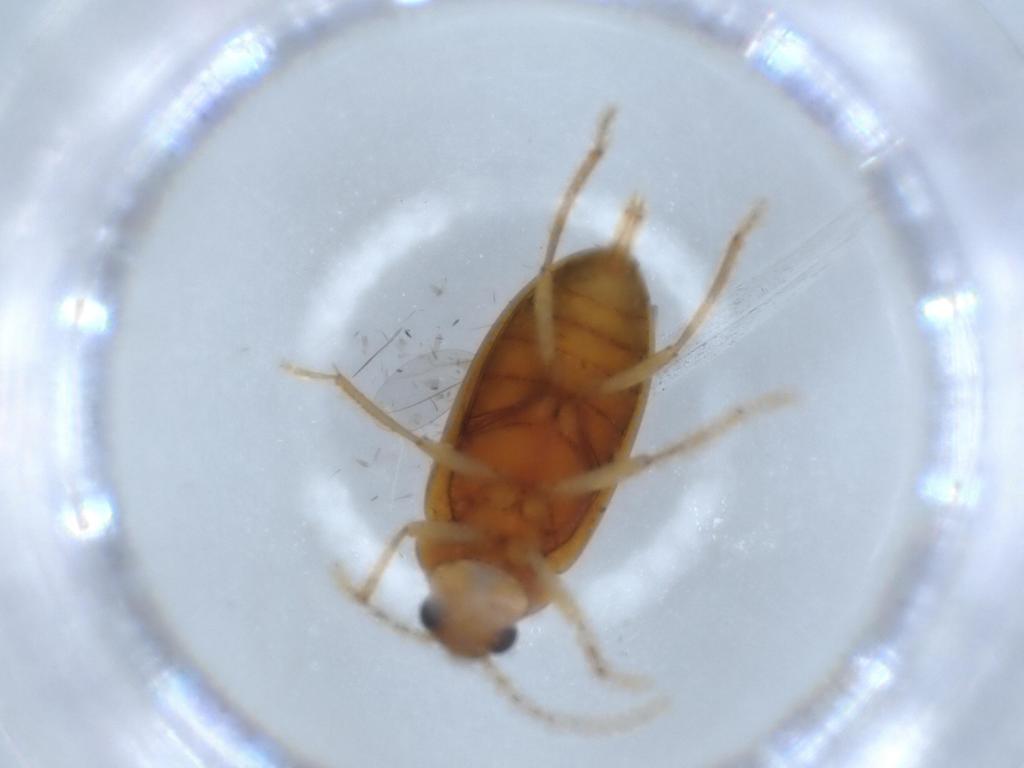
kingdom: Animalia
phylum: Arthropoda
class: Insecta
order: Coleoptera
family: Ptilodactylidae
